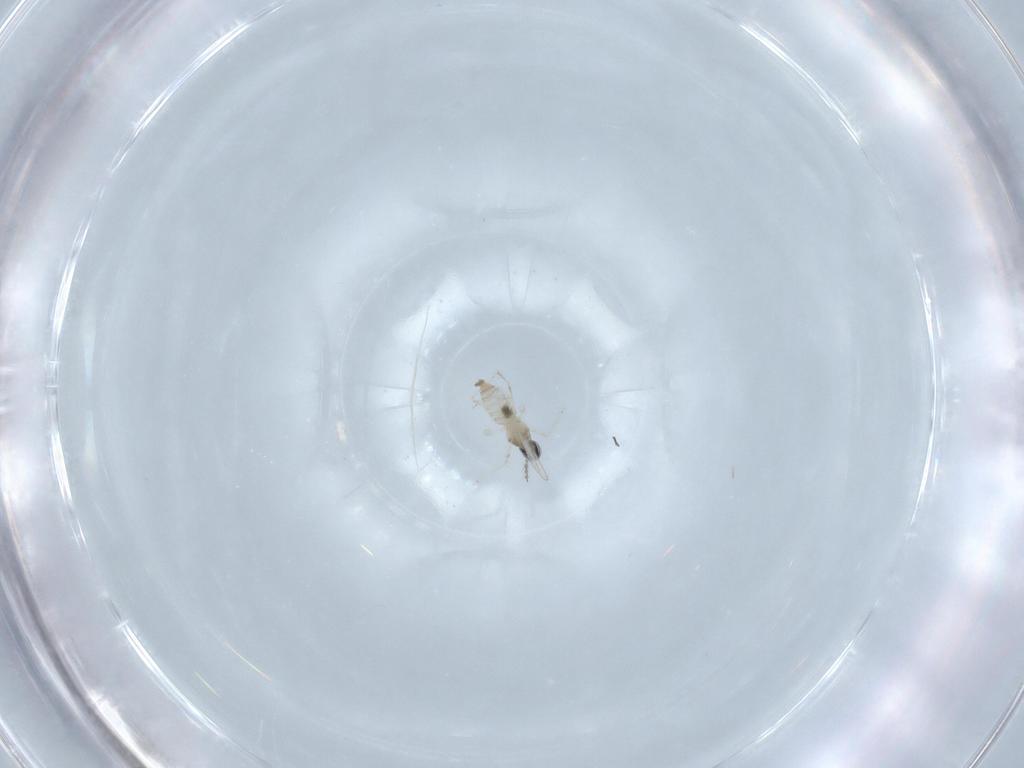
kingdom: Animalia
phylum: Arthropoda
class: Insecta
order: Diptera
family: Cecidomyiidae
